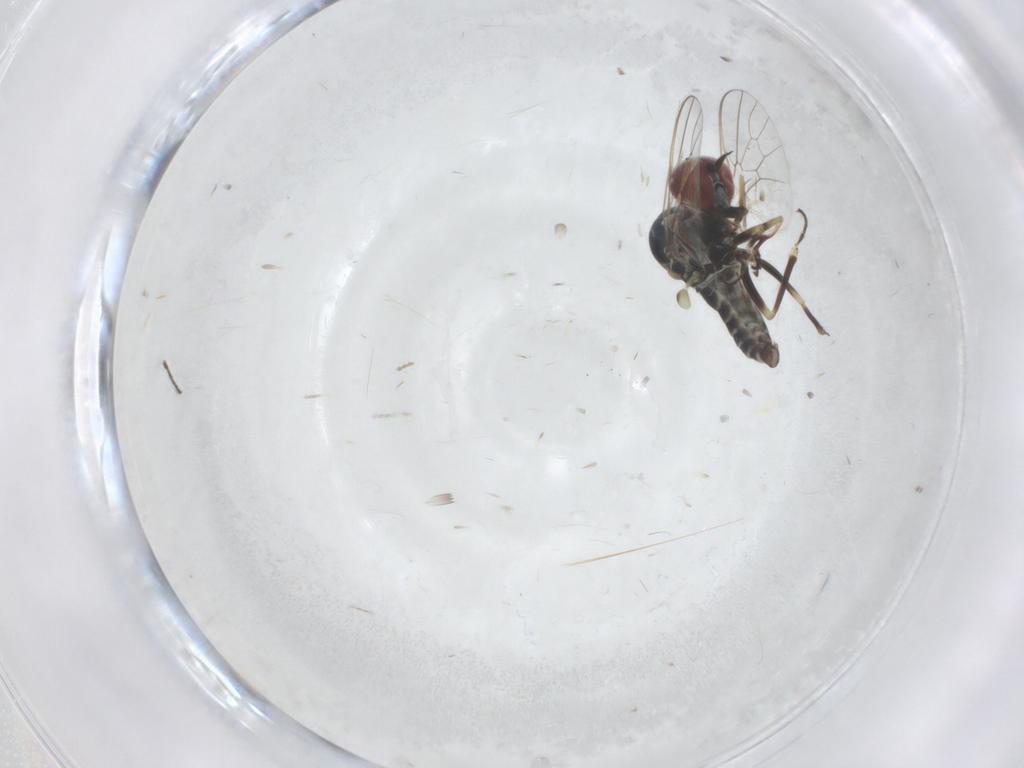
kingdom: Animalia
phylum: Arthropoda
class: Insecta
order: Diptera
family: Bombyliidae
